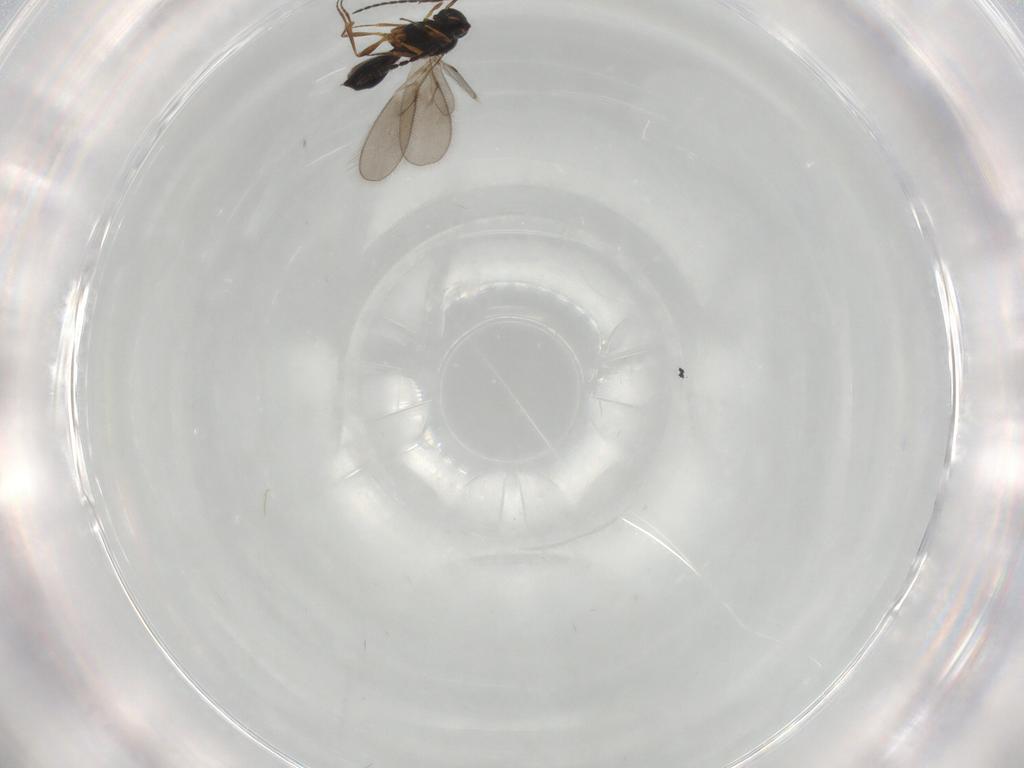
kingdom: Animalia
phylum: Arthropoda
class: Insecta
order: Hymenoptera
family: Scelionidae
